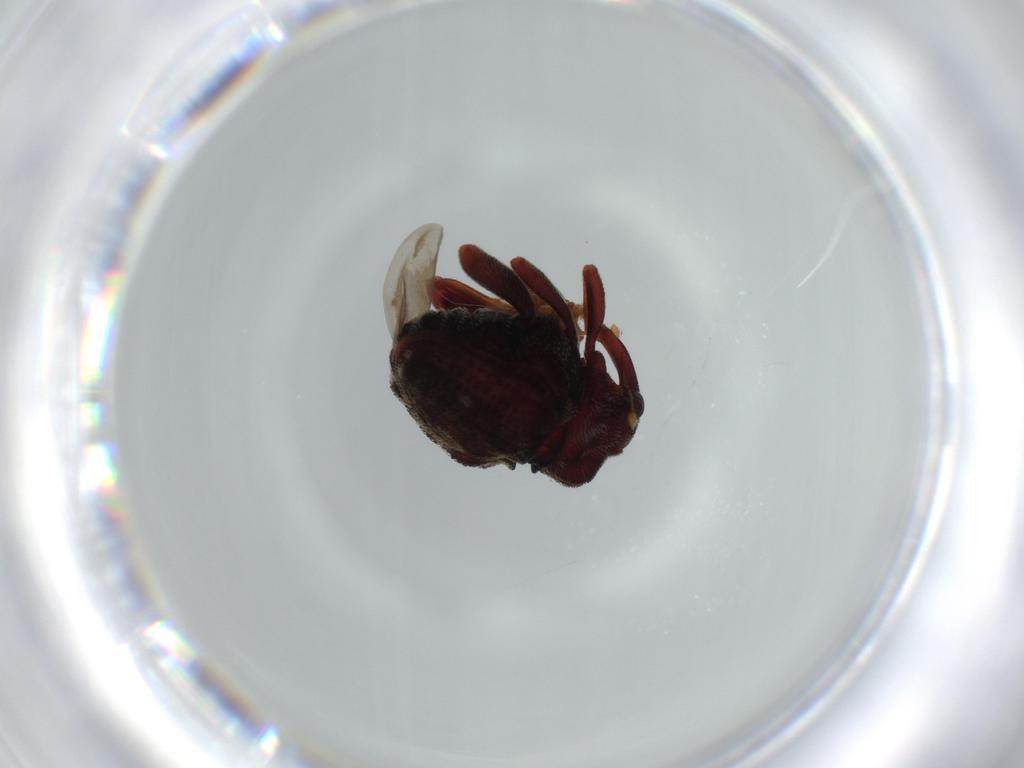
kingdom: Animalia
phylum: Arthropoda
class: Insecta
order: Coleoptera
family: Curculionidae
